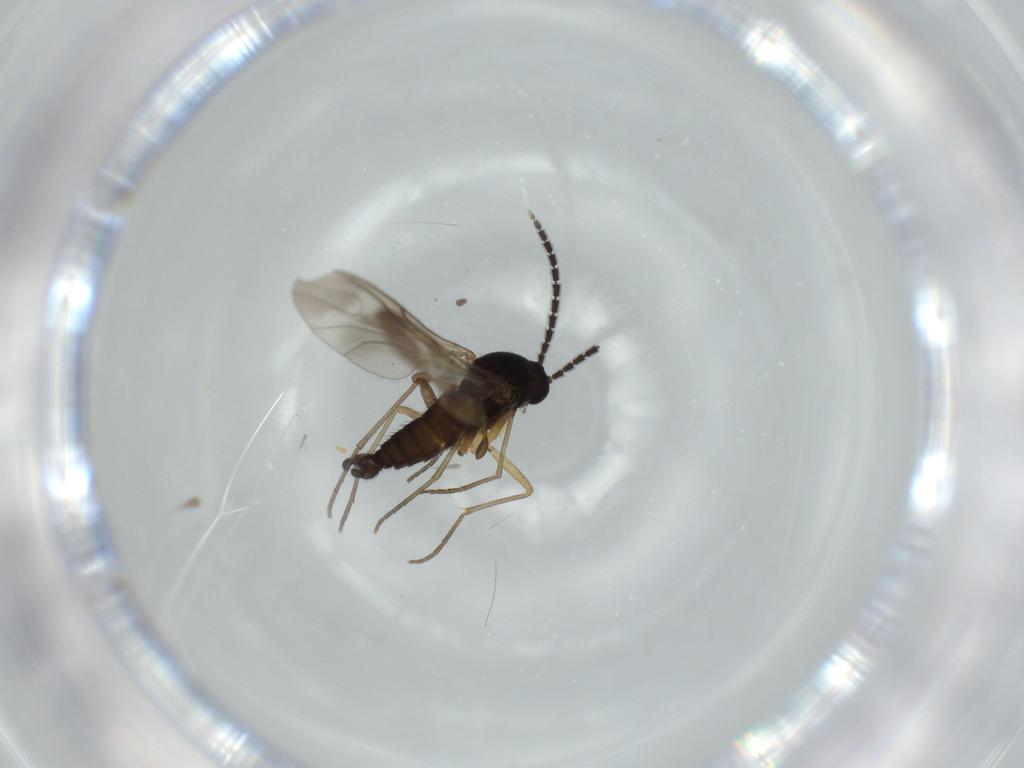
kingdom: Animalia
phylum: Arthropoda
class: Insecta
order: Diptera
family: Sciaridae
